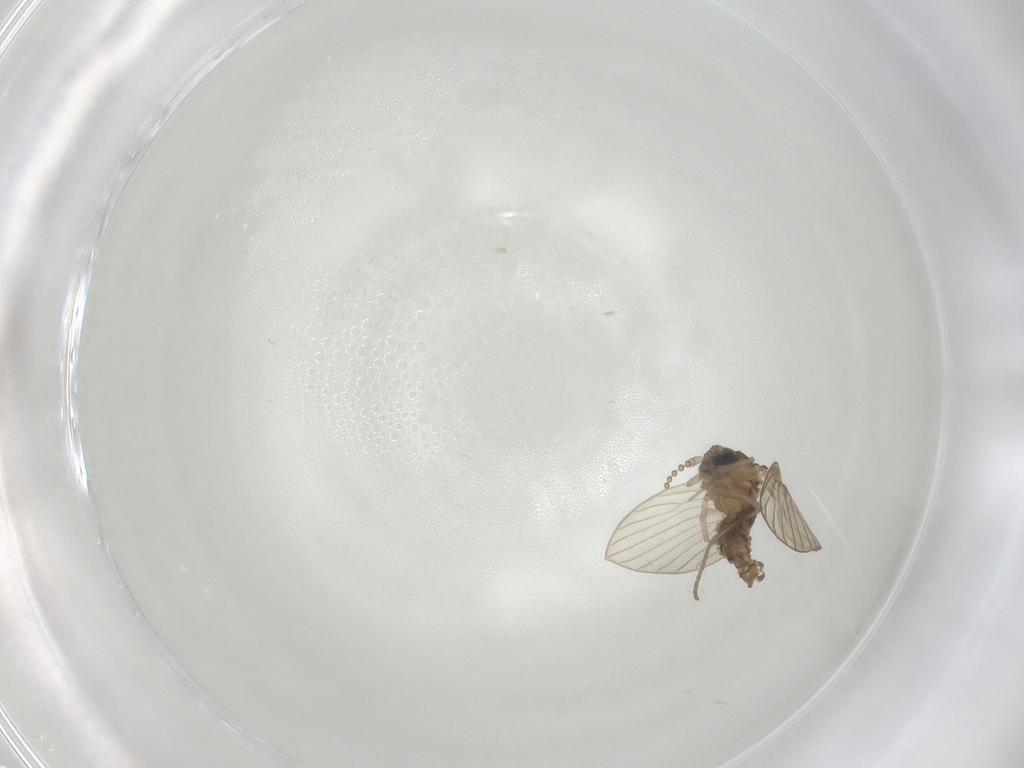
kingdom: Animalia
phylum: Arthropoda
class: Insecta
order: Diptera
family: Psychodidae
